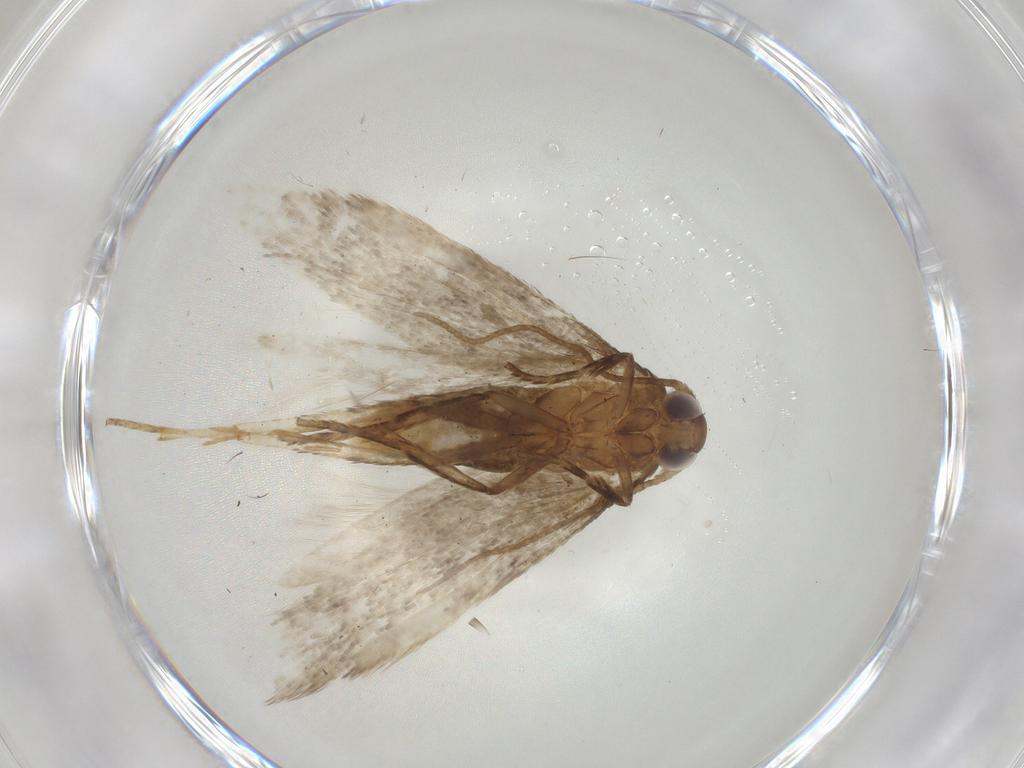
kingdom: Animalia
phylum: Arthropoda
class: Insecta
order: Lepidoptera
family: Coleophoridae
